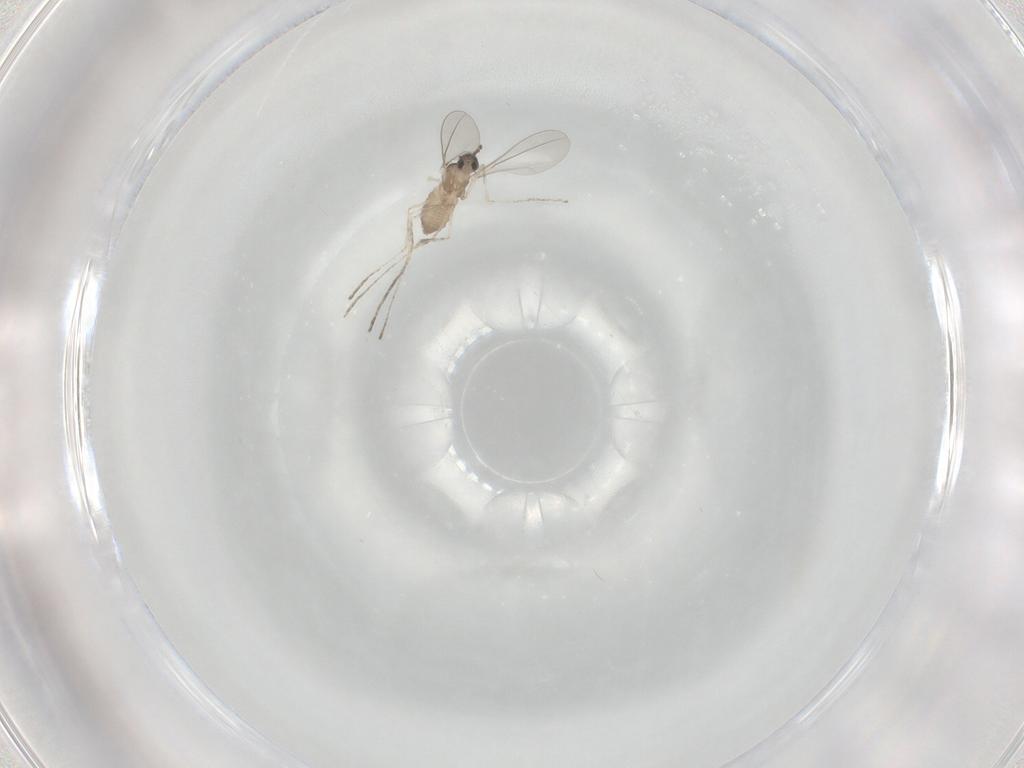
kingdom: Animalia
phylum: Arthropoda
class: Insecta
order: Diptera
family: Cecidomyiidae
